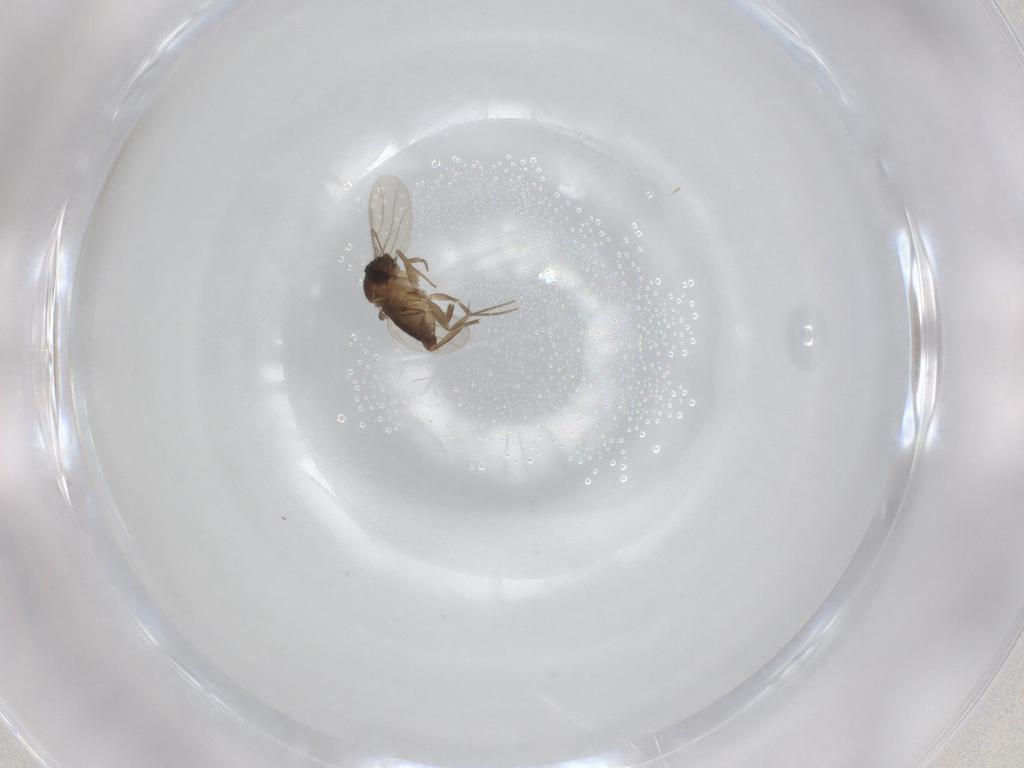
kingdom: Animalia
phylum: Arthropoda
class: Insecta
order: Diptera
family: Phoridae
